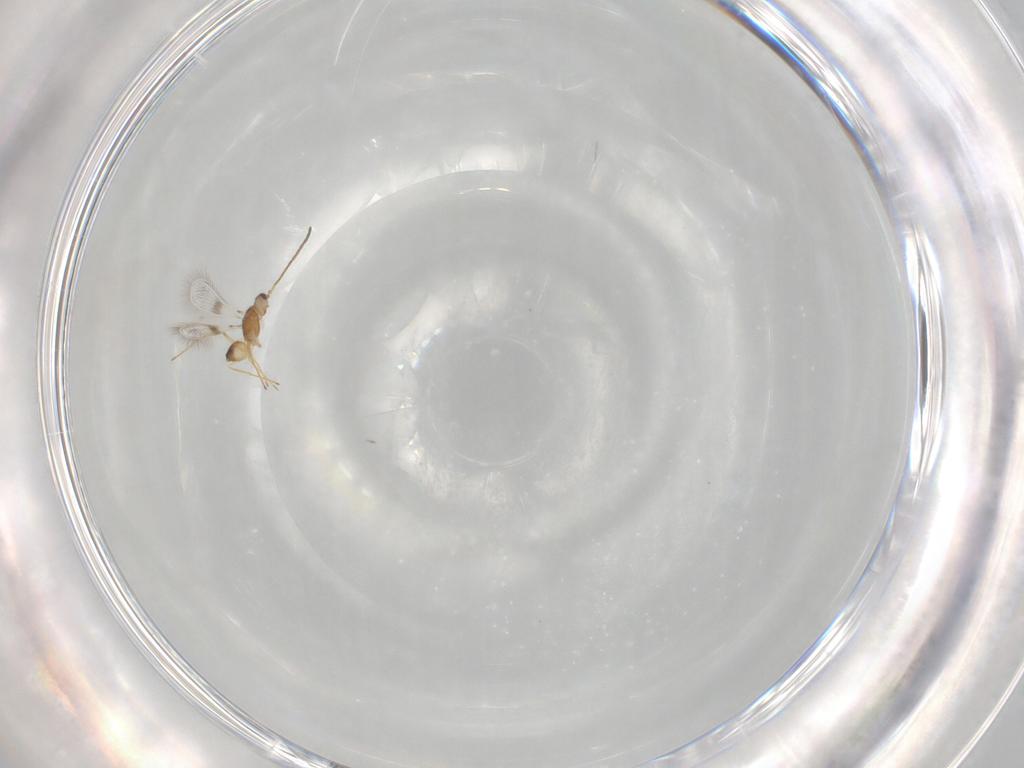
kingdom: Animalia
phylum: Arthropoda
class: Insecta
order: Hymenoptera
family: Mymaridae
